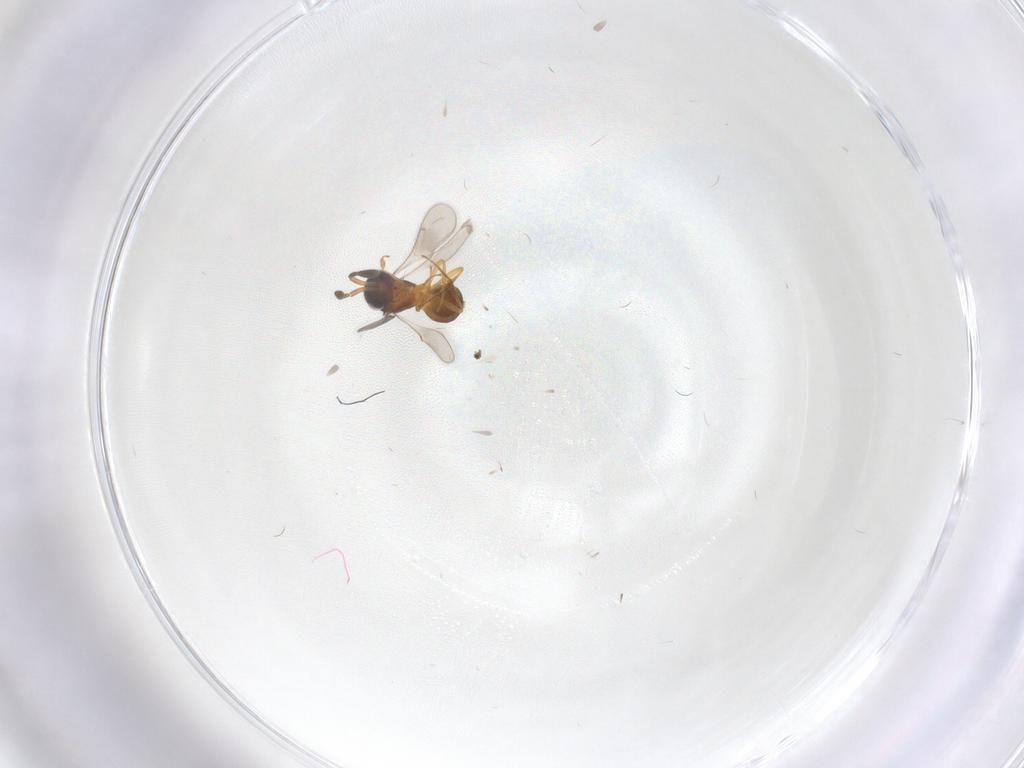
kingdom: Animalia
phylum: Arthropoda
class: Insecta
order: Hymenoptera
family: Scelionidae
